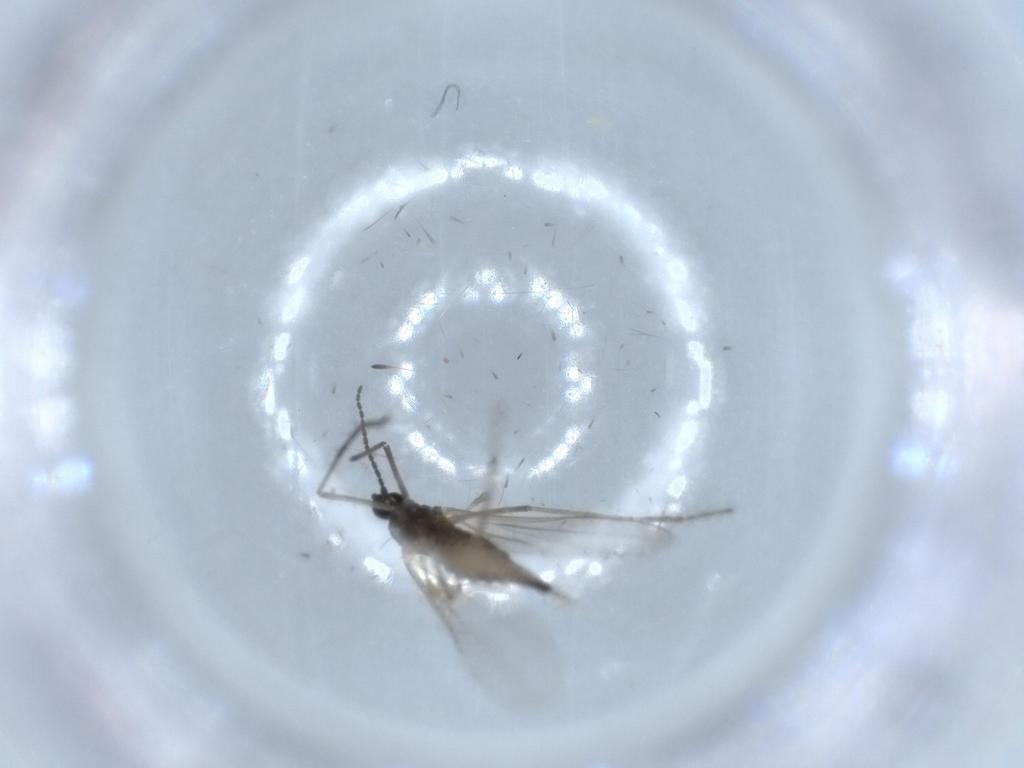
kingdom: Animalia
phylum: Arthropoda
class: Insecta
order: Diptera
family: Cecidomyiidae
